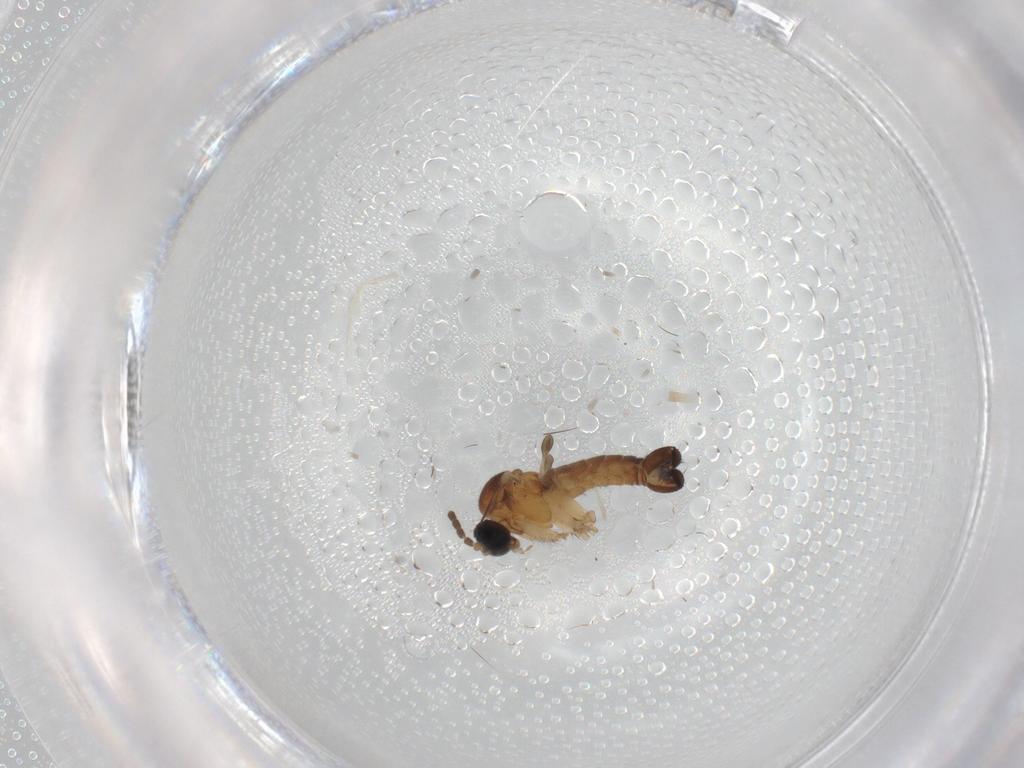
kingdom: Animalia
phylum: Arthropoda
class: Insecta
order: Diptera
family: Sciaridae
